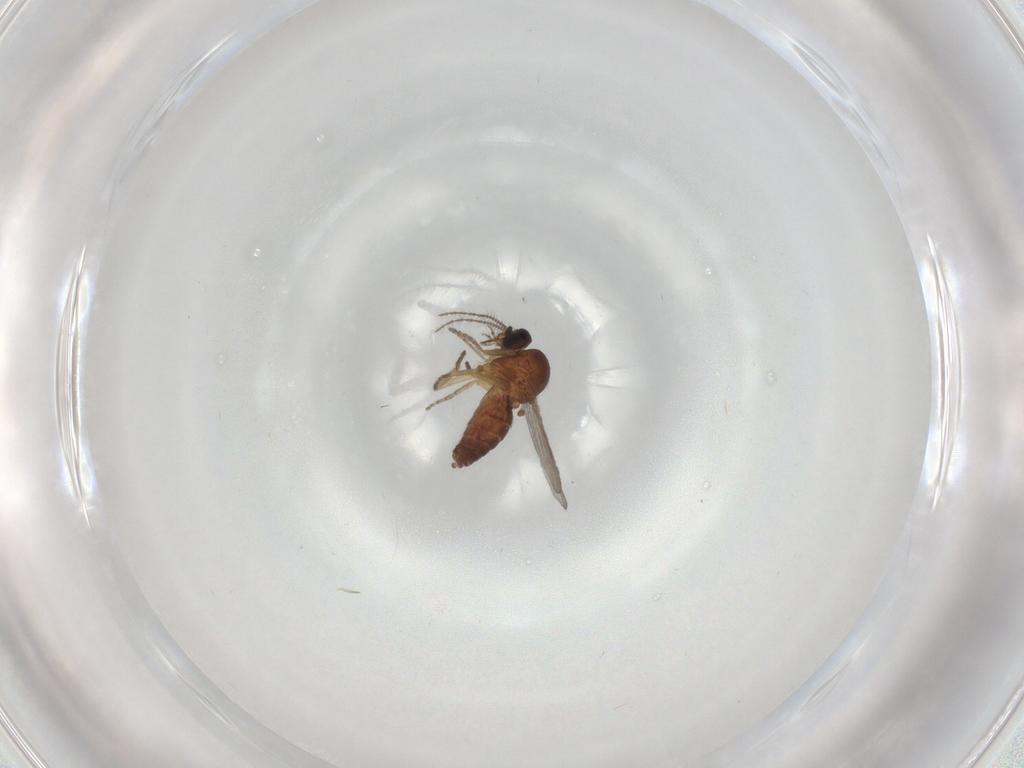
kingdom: Animalia
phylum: Arthropoda
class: Insecta
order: Diptera
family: Ceratopogonidae
